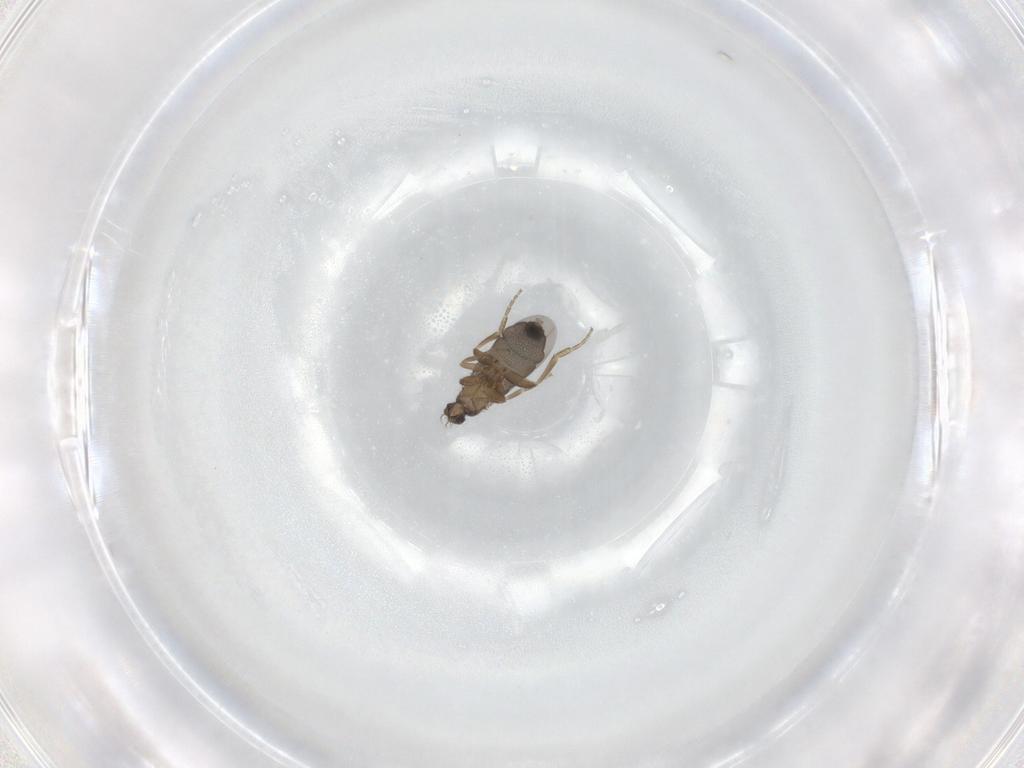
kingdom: Animalia
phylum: Arthropoda
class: Insecta
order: Diptera
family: Phoridae
